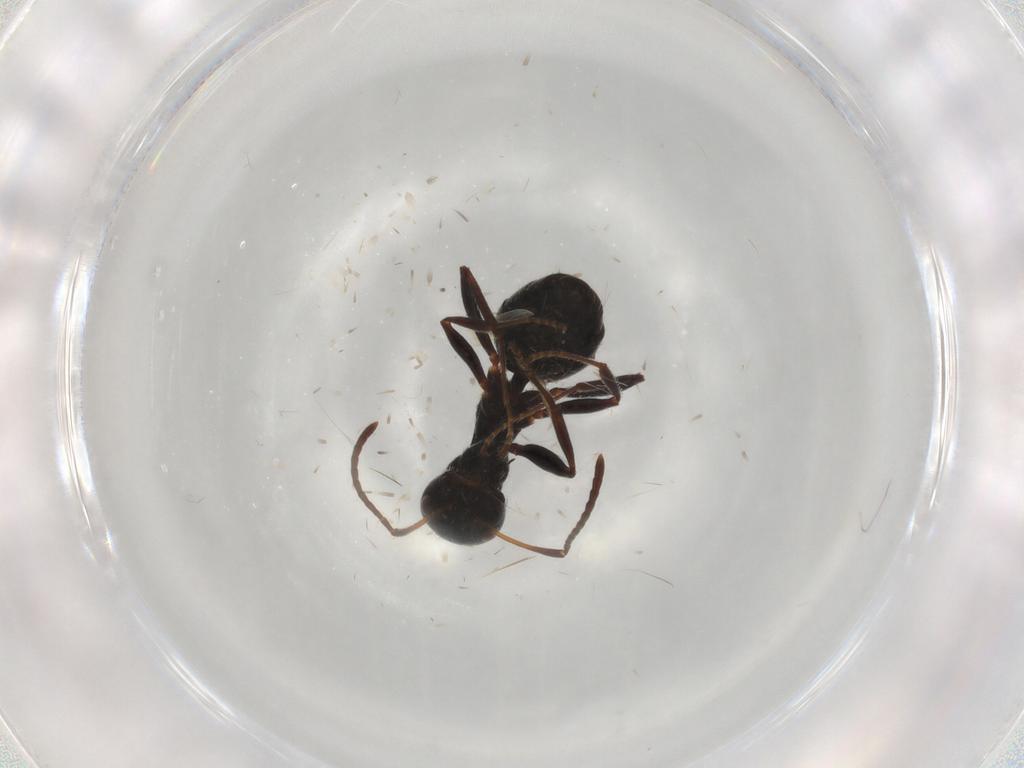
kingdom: Animalia
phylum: Arthropoda
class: Insecta
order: Hymenoptera
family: Formicidae
